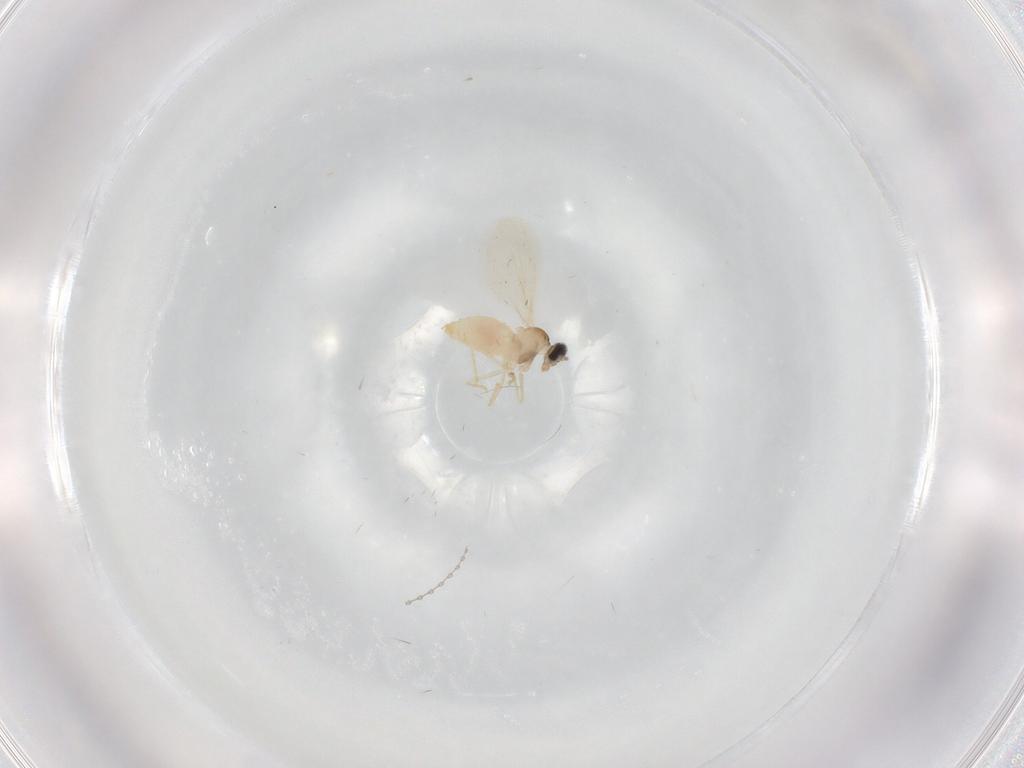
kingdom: Animalia
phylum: Arthropoda
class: Insecta
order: Diptera
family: Cecidomyiidae
